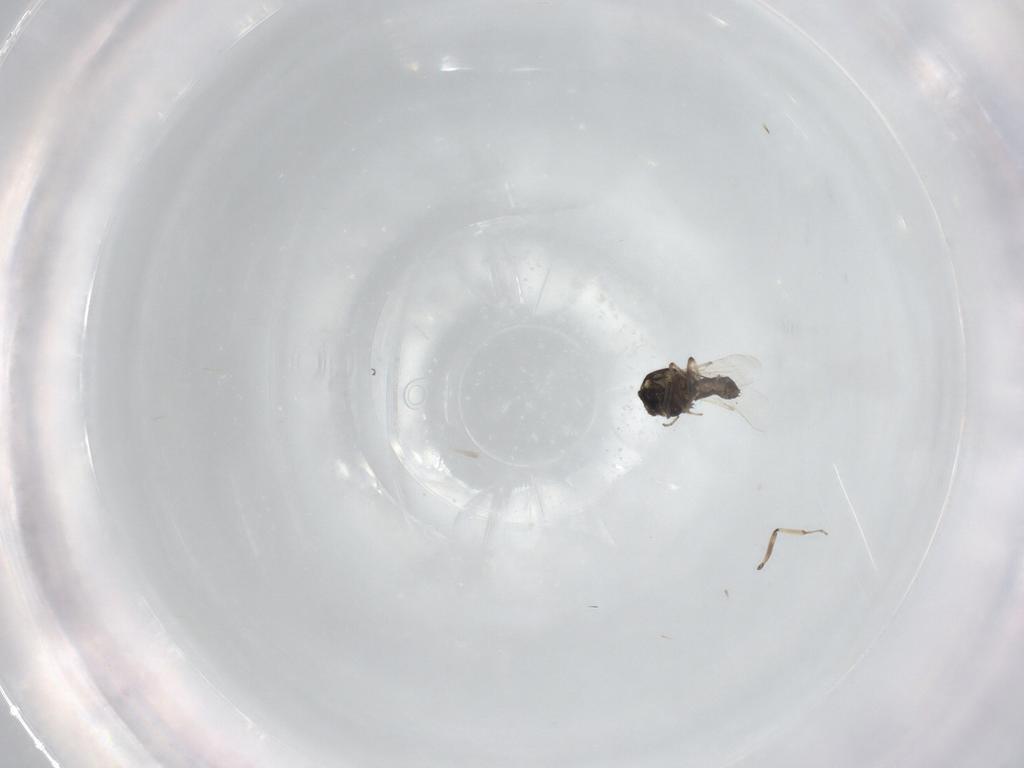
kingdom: Animalia
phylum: Arthropoda
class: Insecta
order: Diptera
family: Ceratopogonidae
